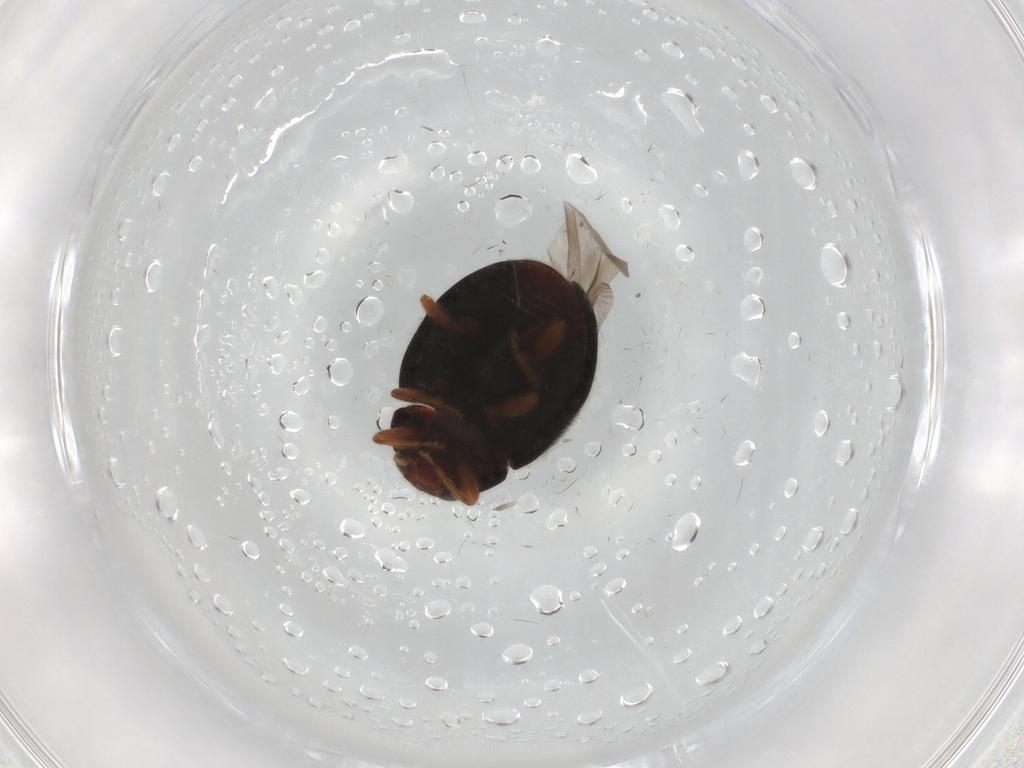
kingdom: Animalia
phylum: Arthropoda
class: Insecta
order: Coleoptera
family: Coccinellidae
